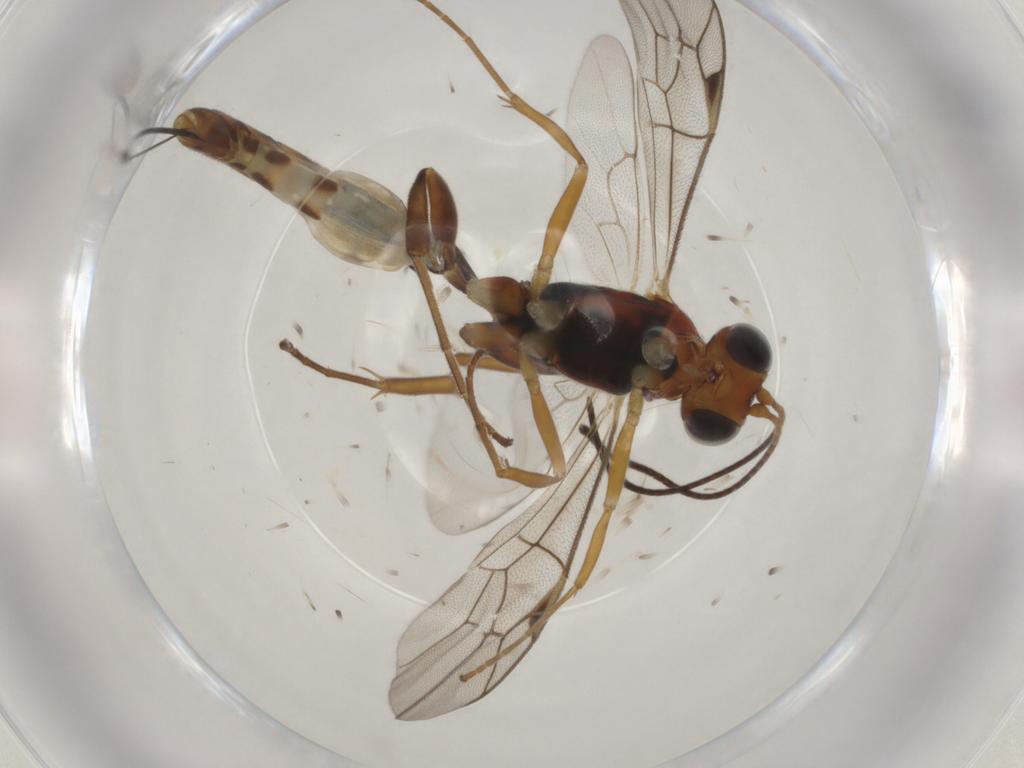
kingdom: Animalia
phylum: Arthropoda
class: Insecta
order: Hymenoptera
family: Ichneumonidae
